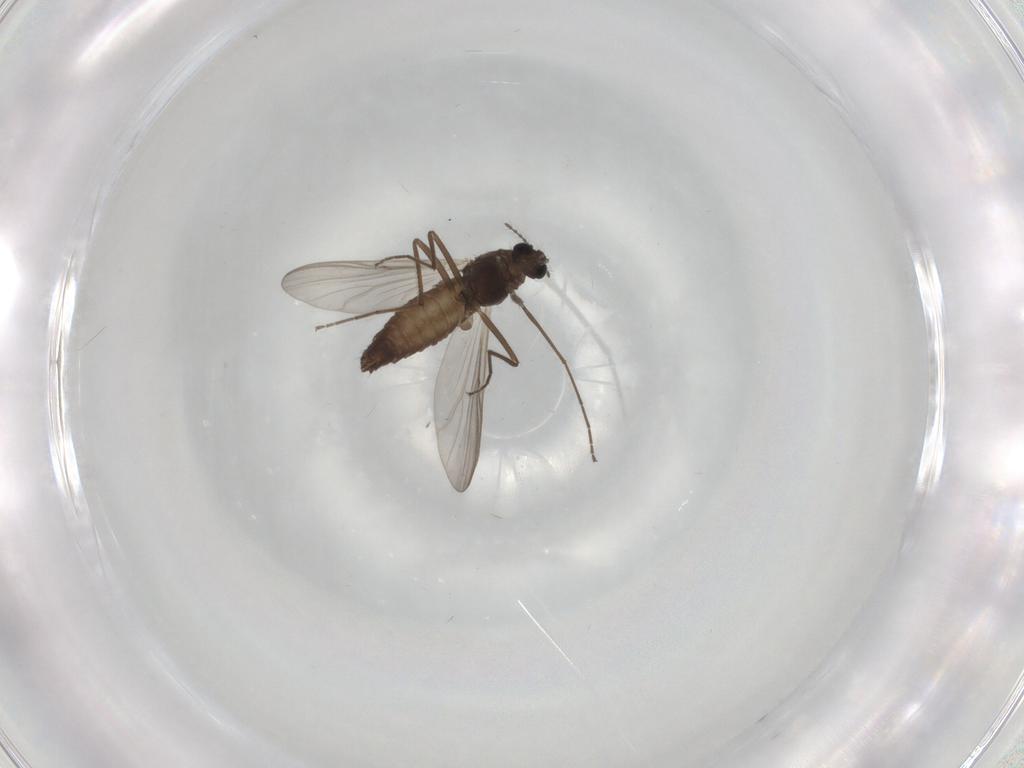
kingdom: Animalia
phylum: Arthropoda
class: Insecta
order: Diptera
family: Chironomidae
